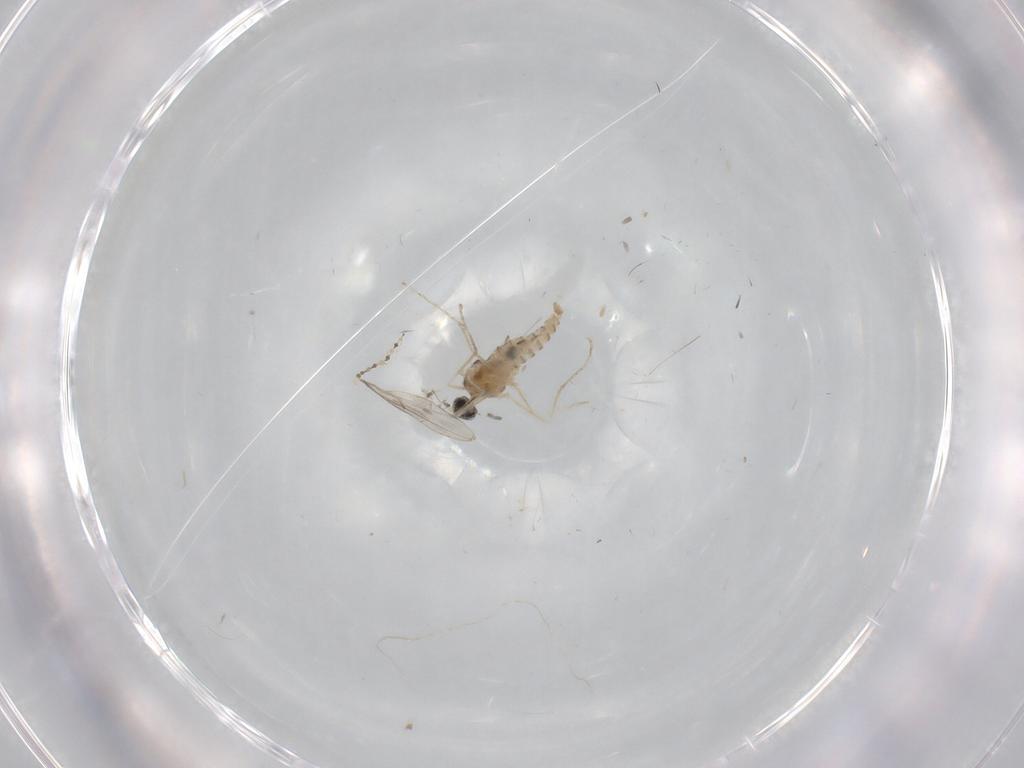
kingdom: Animalia
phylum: Arthropoda
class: Insecta
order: Diptera
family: Cecidomyiidae
